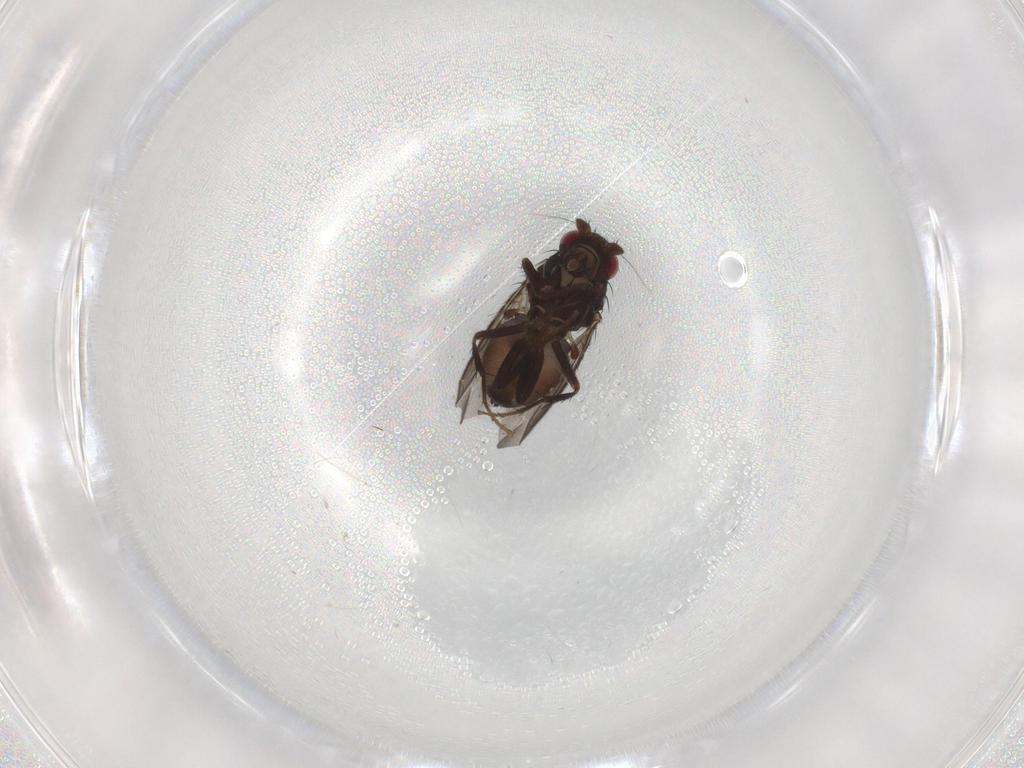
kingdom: Animalia
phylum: Arthropoda
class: Insecta
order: Diptera
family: Sphaeroceridae
